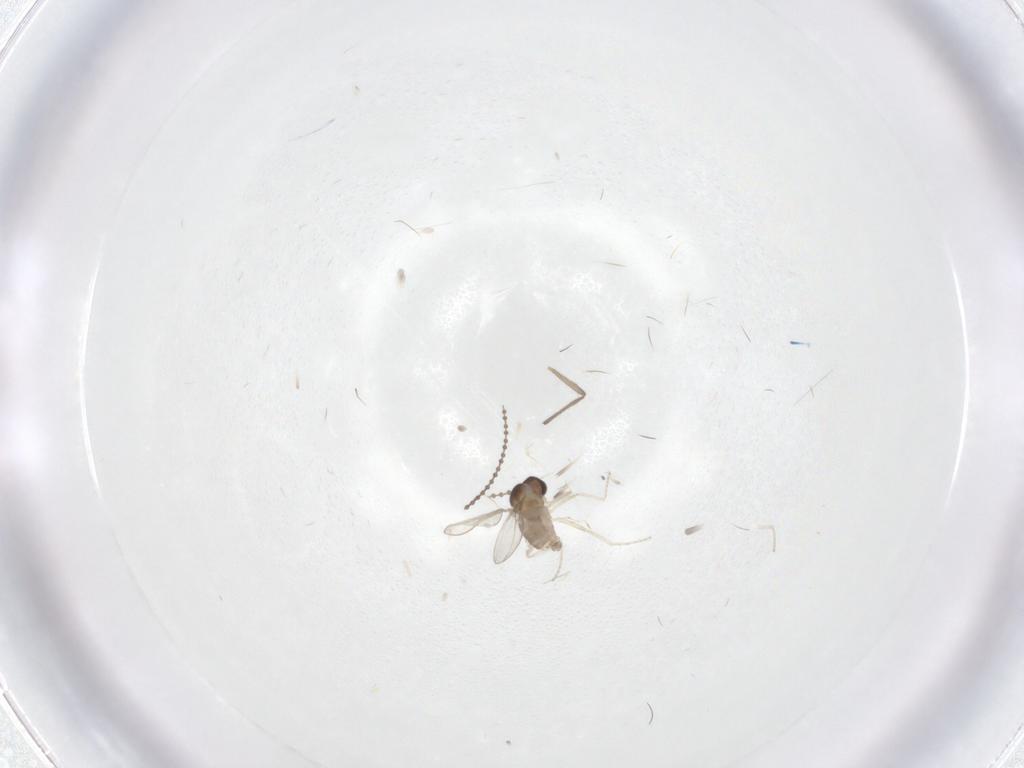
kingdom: Animalia
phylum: Arthropoda
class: Insecta
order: Diptera
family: Cecidomyiidae
